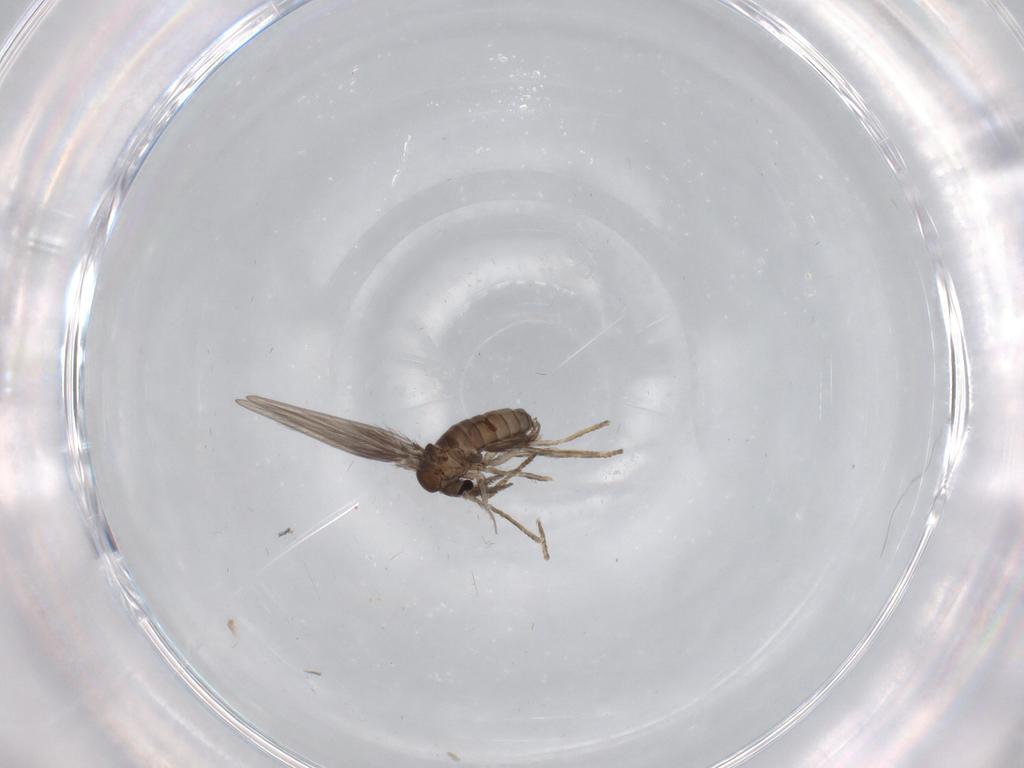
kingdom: Animalia
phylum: Arthropoda
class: Insecta
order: Diptera
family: Psychodidae
